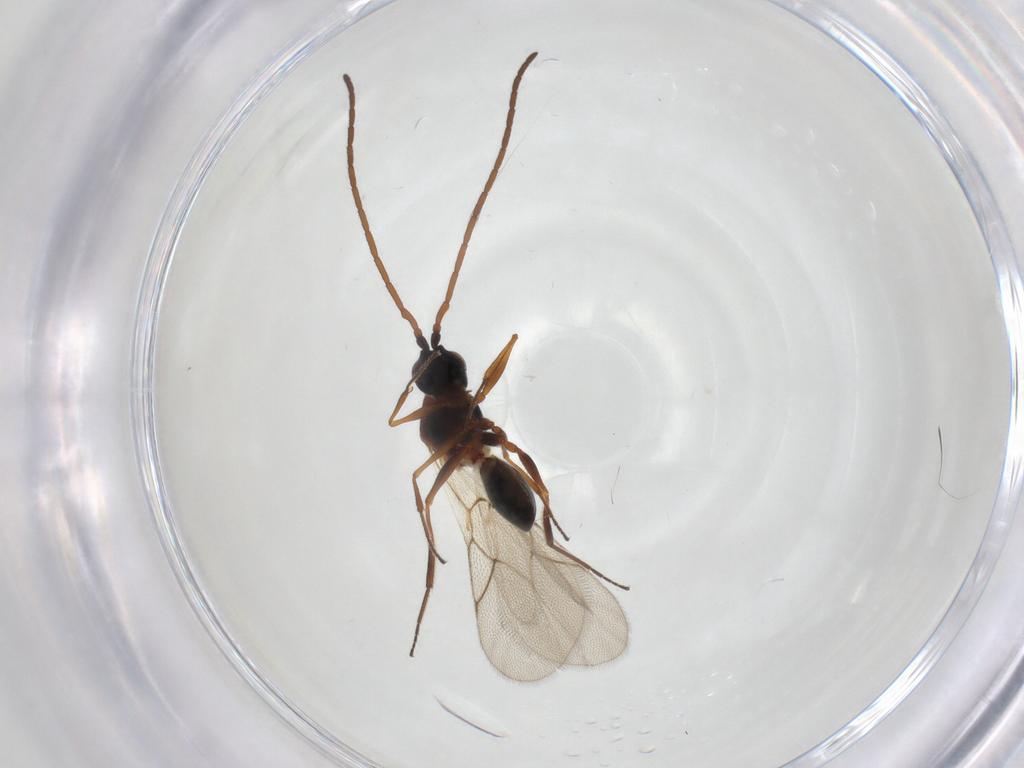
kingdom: Animalia
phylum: Arthropoda
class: Insecta
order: Hymenoptera
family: Figitidae
